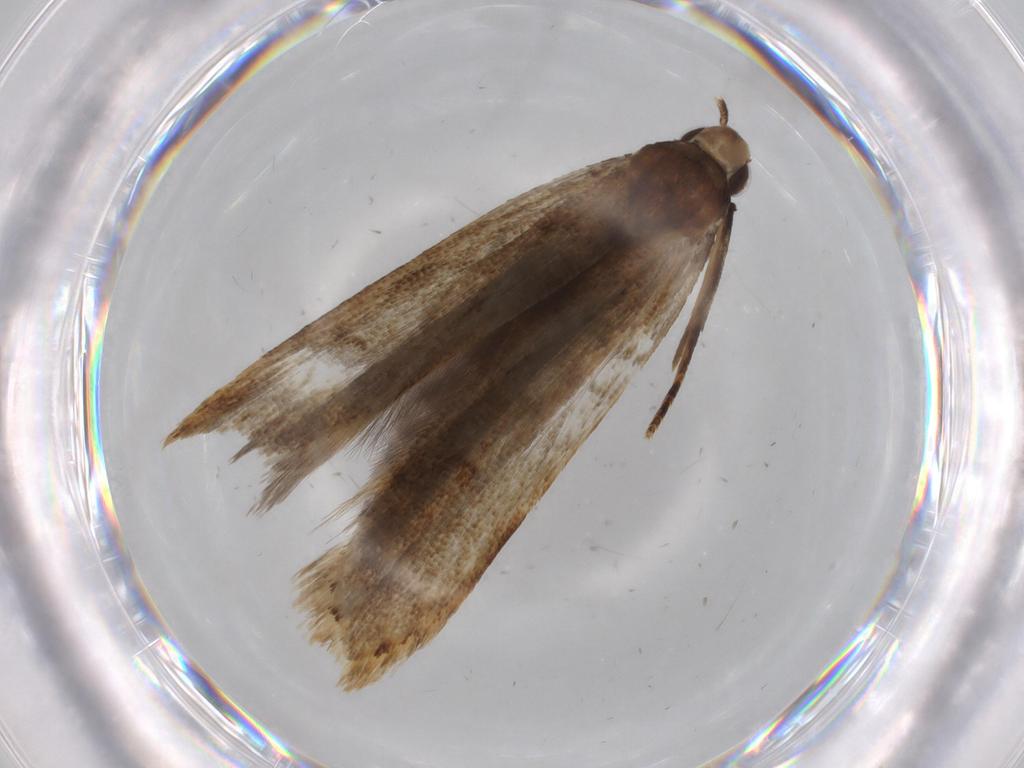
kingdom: Animalia
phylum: Arthropoda
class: Insecta
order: Lepidoptera
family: Gelechiidae
